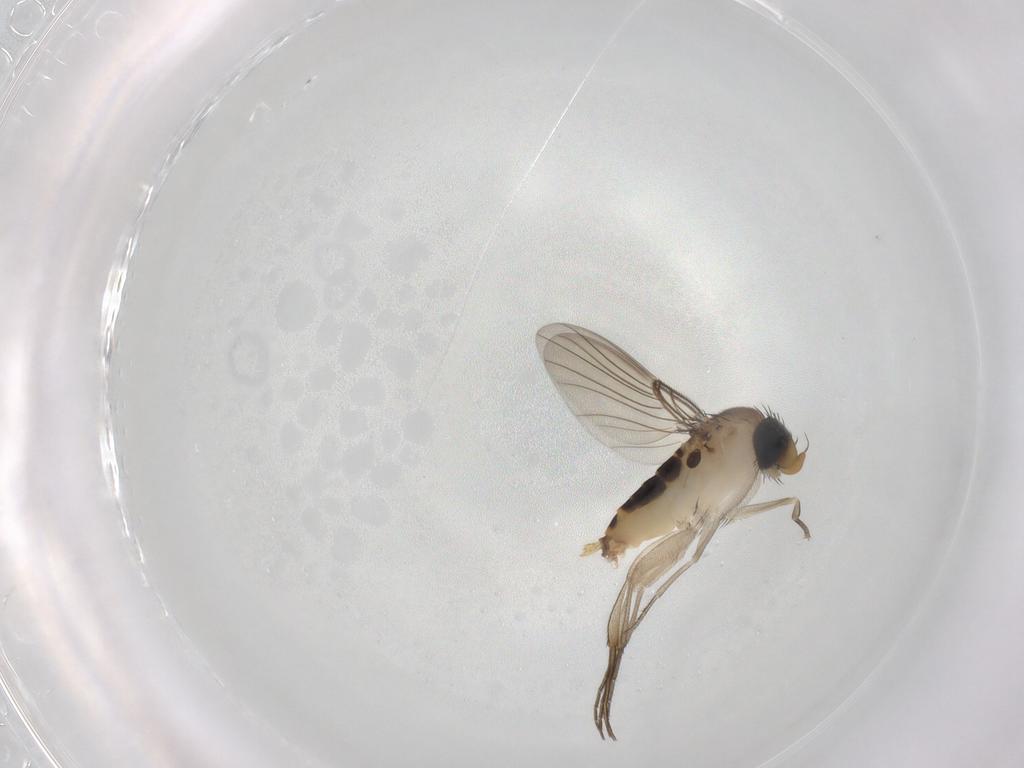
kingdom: Animalia
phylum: Arthropoda
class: Insecta
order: Diptera
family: Phoridae
